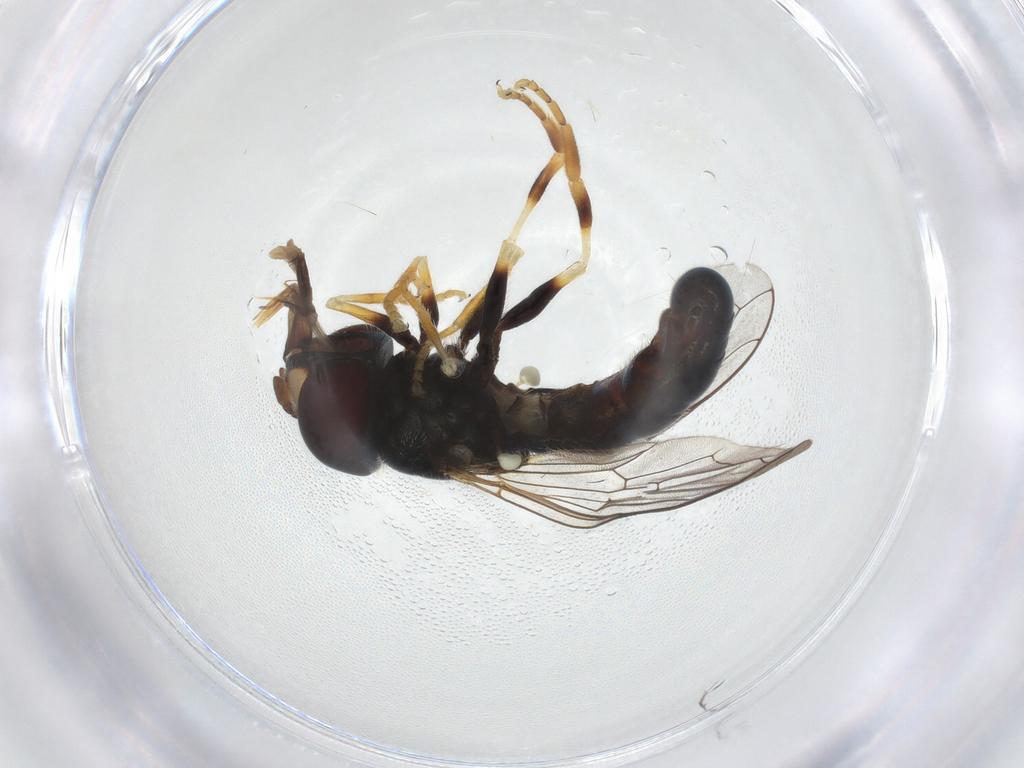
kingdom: Animalia
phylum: Arthropoda
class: Insecta
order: Diptera
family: Syrphidae
